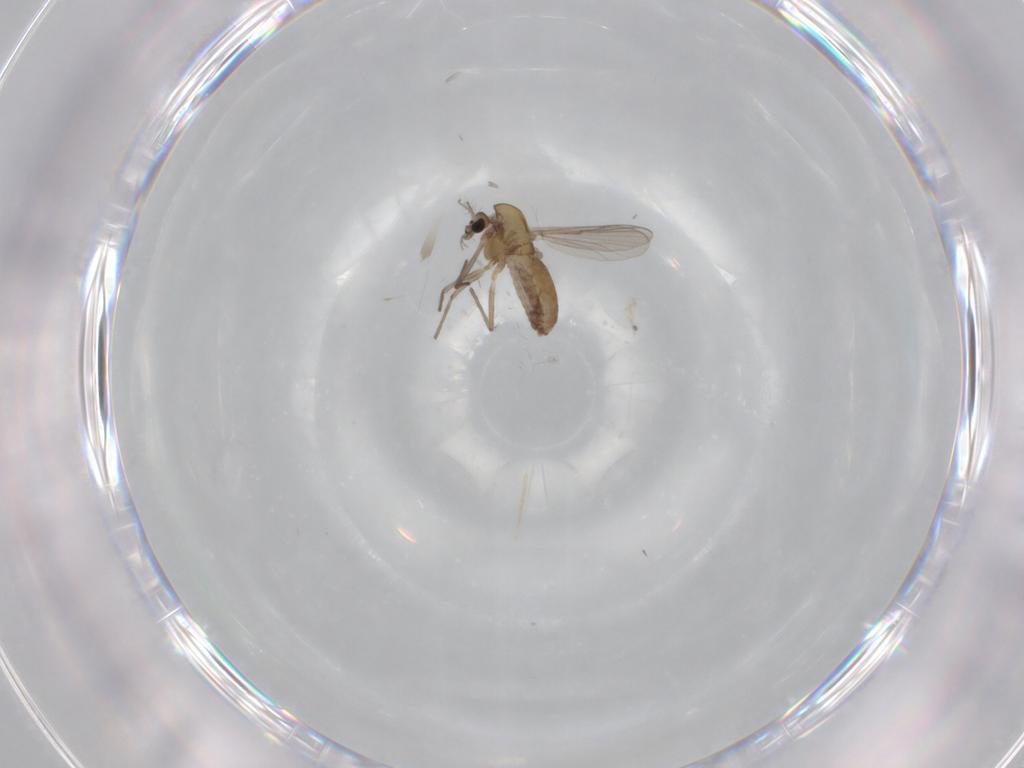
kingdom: Animalia
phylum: Arthropoda
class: Insecta
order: Diptera
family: Chironomidae
